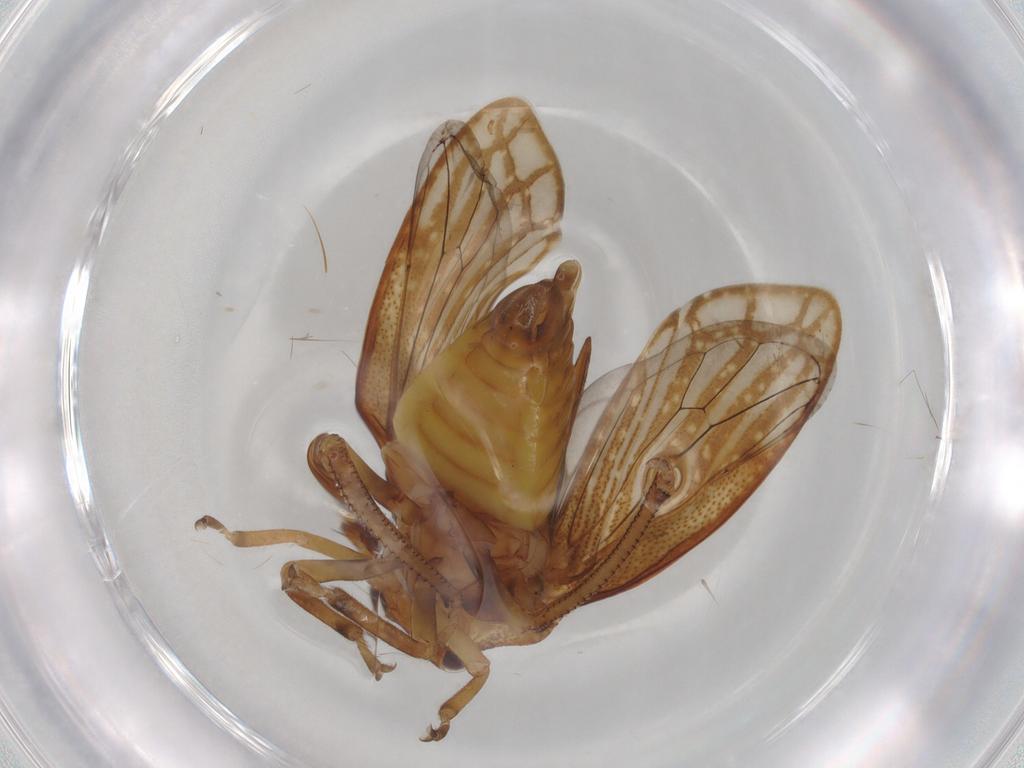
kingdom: Animalia
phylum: Arthropoda
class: Insecta
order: Hemiptera
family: Aetalionidae
